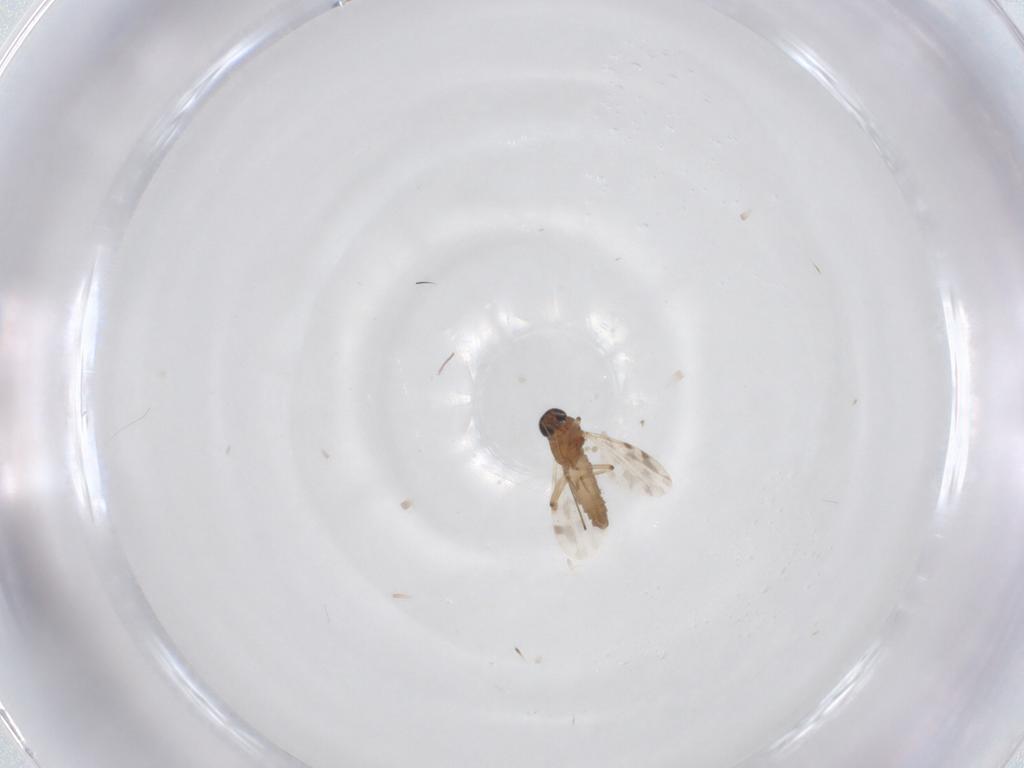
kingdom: Animalia
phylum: Arthropoda
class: Insecta
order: Diptera
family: Ceratopogonidae
